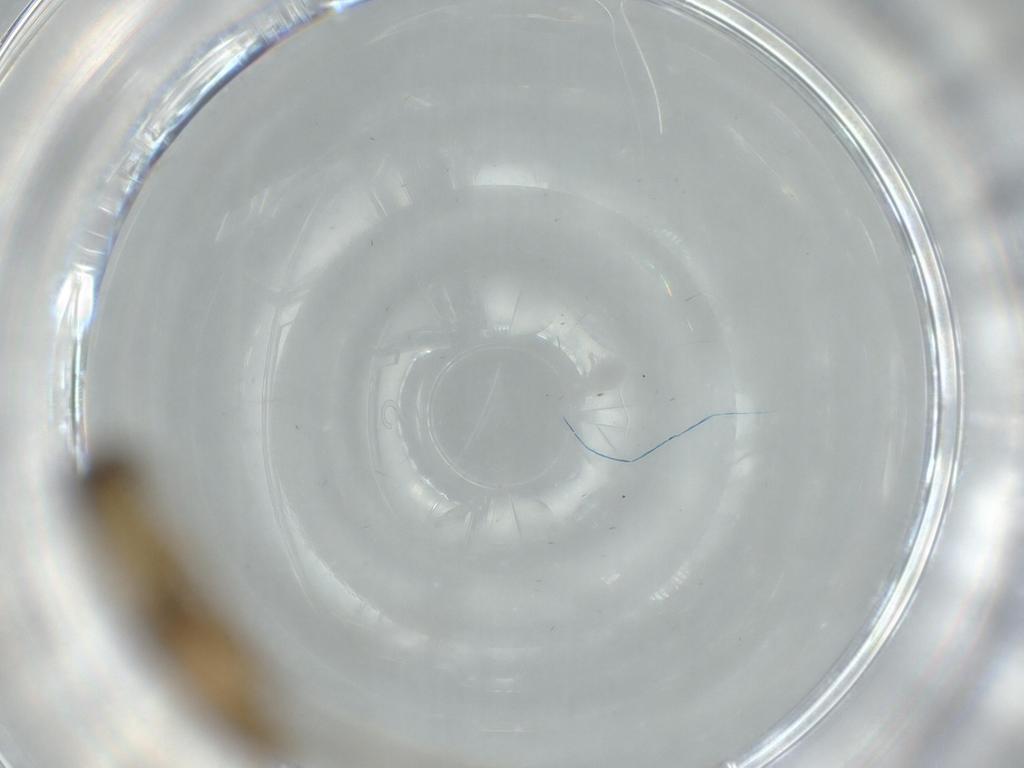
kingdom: Animalia
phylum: Arthropoda
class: Insecta
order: Lepidoptera
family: Tineidae
